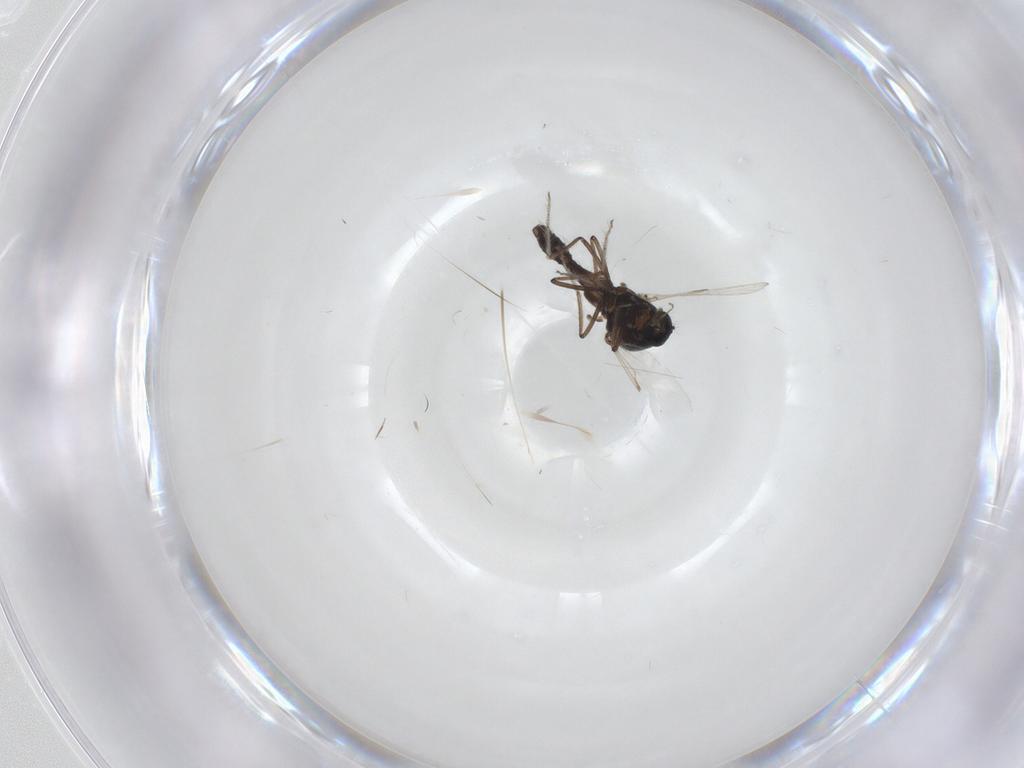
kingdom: Animalia
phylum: Arthropoda
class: Insecta
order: Diptera
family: Ceratopogonidae
